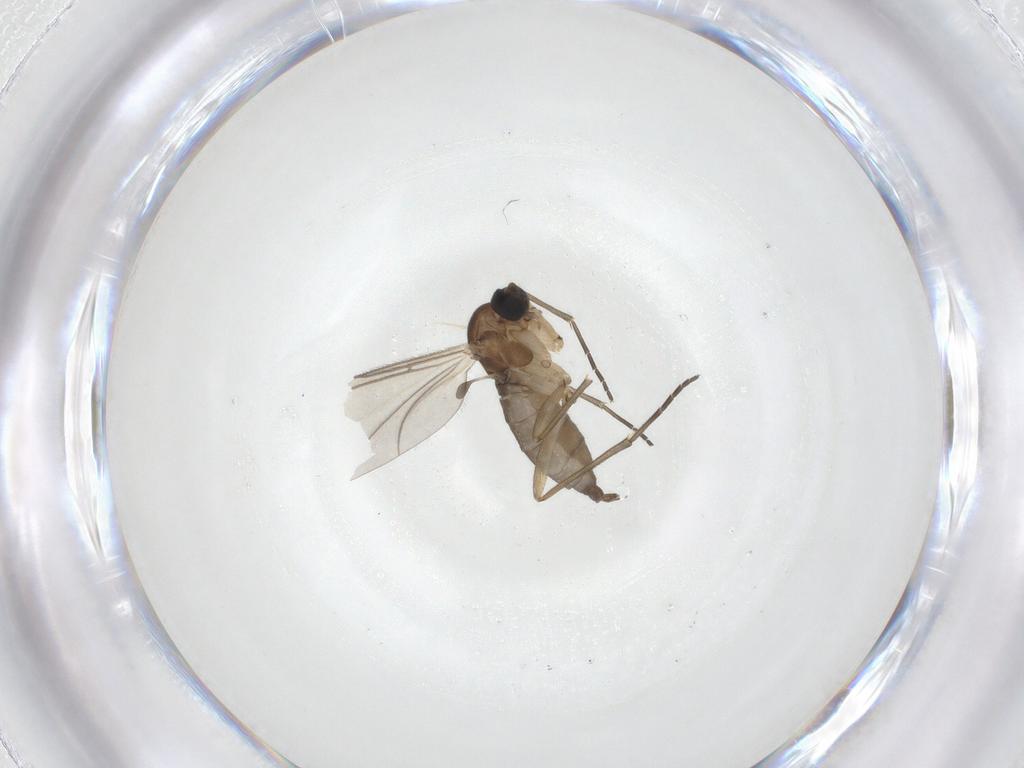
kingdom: Animalia
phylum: Arthropoda
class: Insecta
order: Diptera
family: Sciaridae
